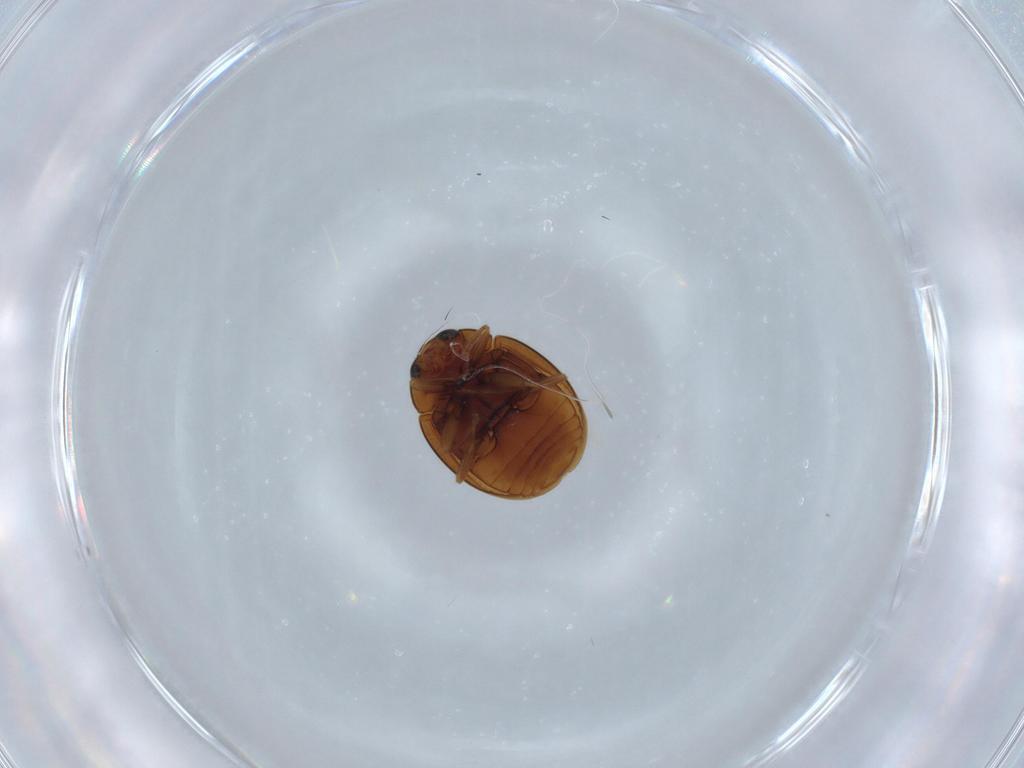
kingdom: Animalia
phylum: Arthropoda
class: Insecta
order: Coleoptera
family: Coccinellidae
